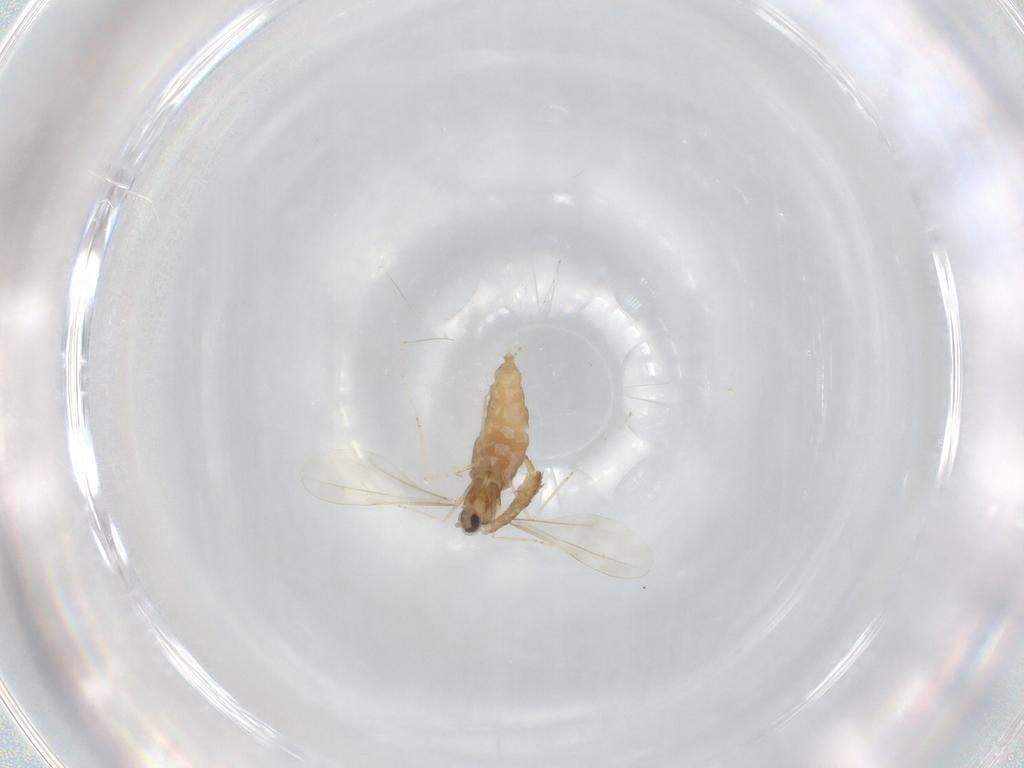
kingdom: Animalia
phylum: Arthropoda
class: Insecta
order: Diptera
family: Cecidomyiidae
